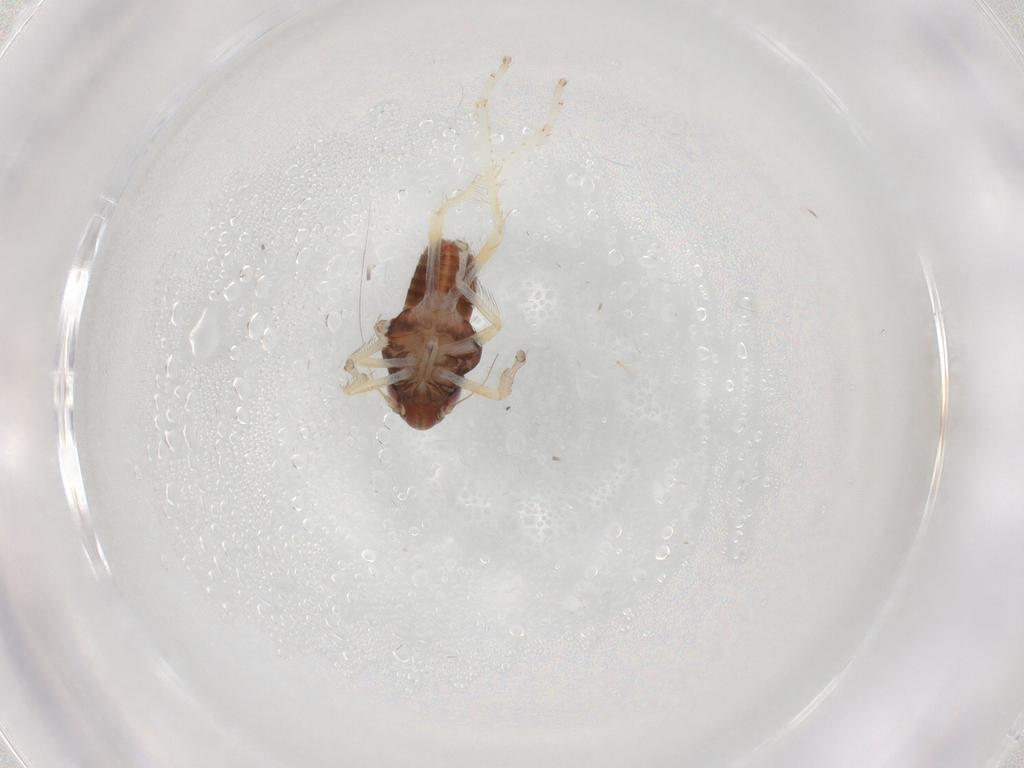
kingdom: Animalia
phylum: Arthropoda
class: Insecta
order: Hemiptera
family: Cicadellidae
